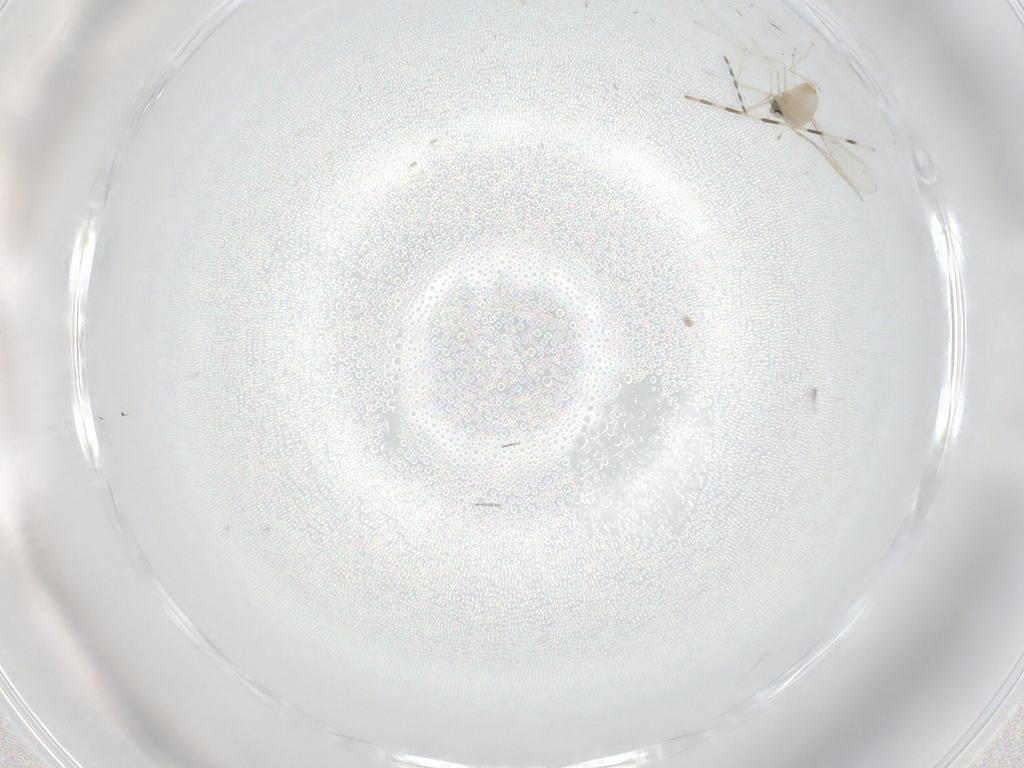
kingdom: Animalia
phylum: Arthropoda
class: Insecta
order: Diptera
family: Cecidomyiidae
